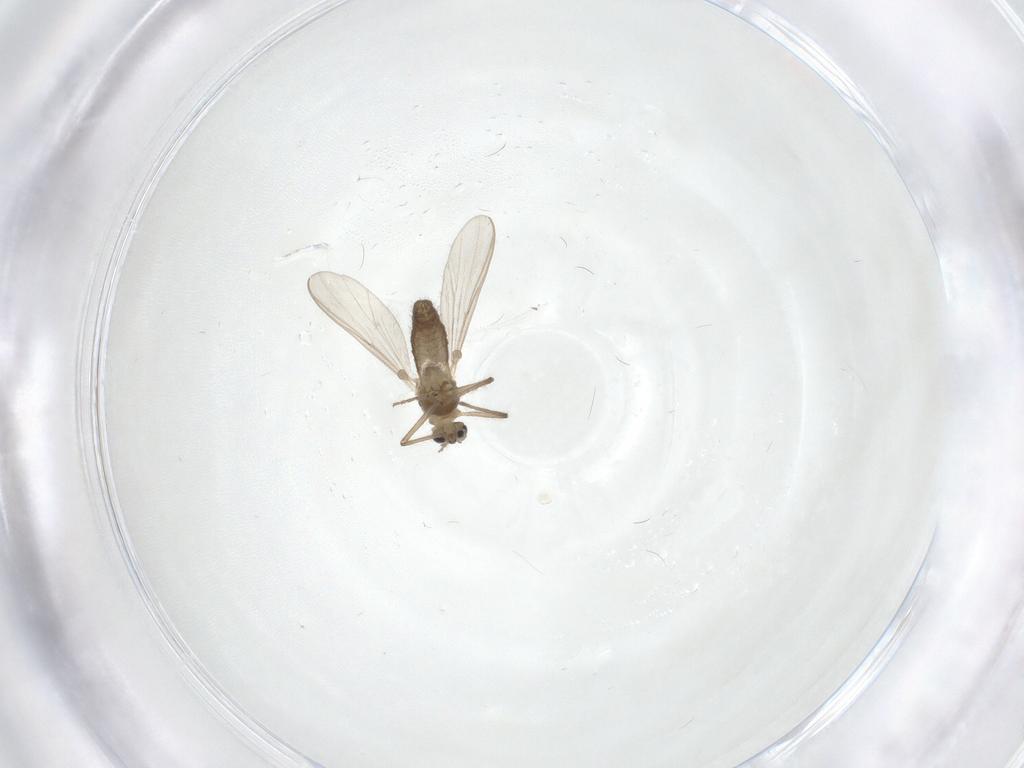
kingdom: Animalia
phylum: Arthropoda
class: Insecta
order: Diptera
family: Chironomidae
